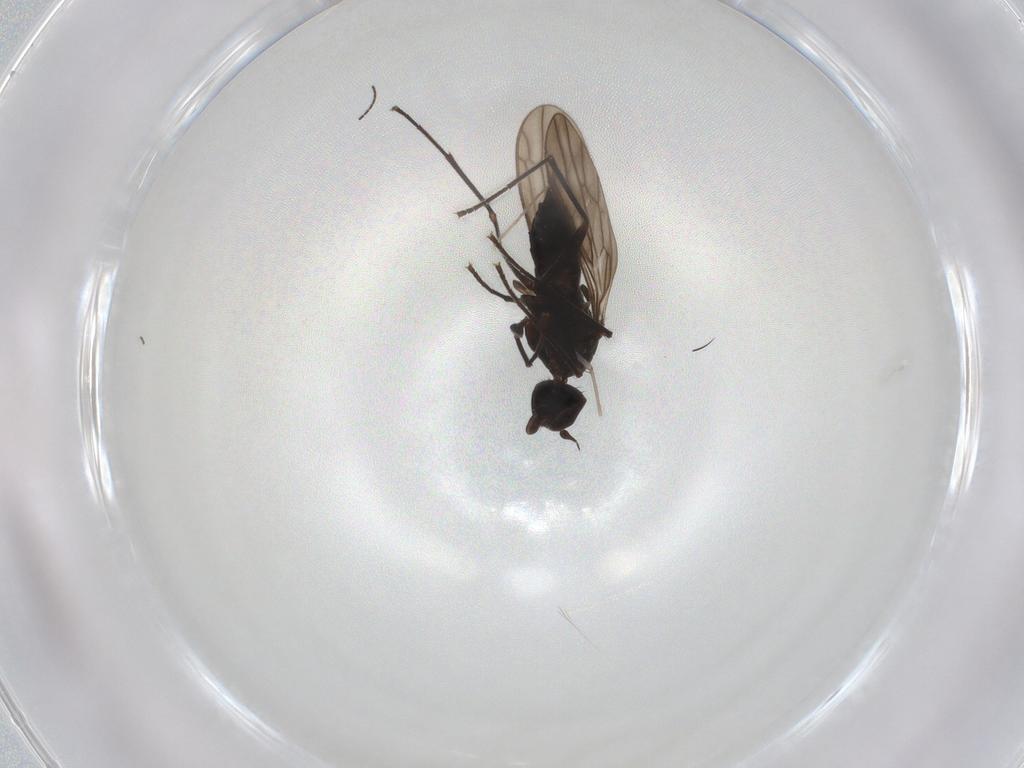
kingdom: Animalia
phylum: Arthropoda
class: Insecta
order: Diptera
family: Empididae
